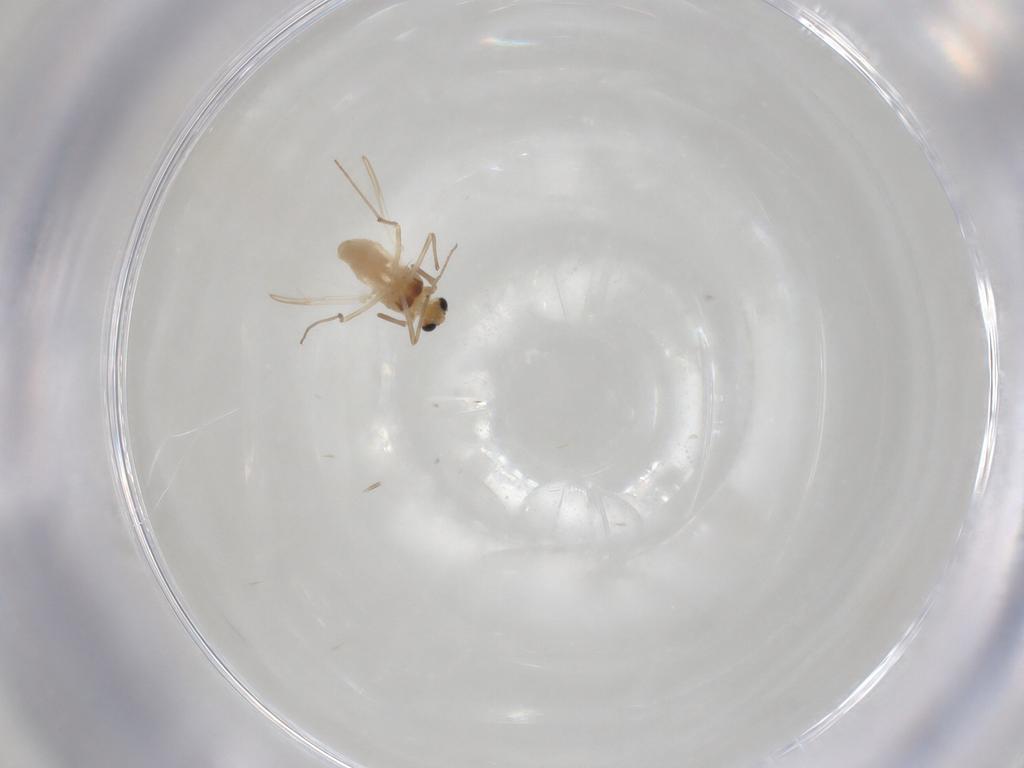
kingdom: Animalia
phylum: Arthropoda
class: Insecta
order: Diptera
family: Chironomidae
